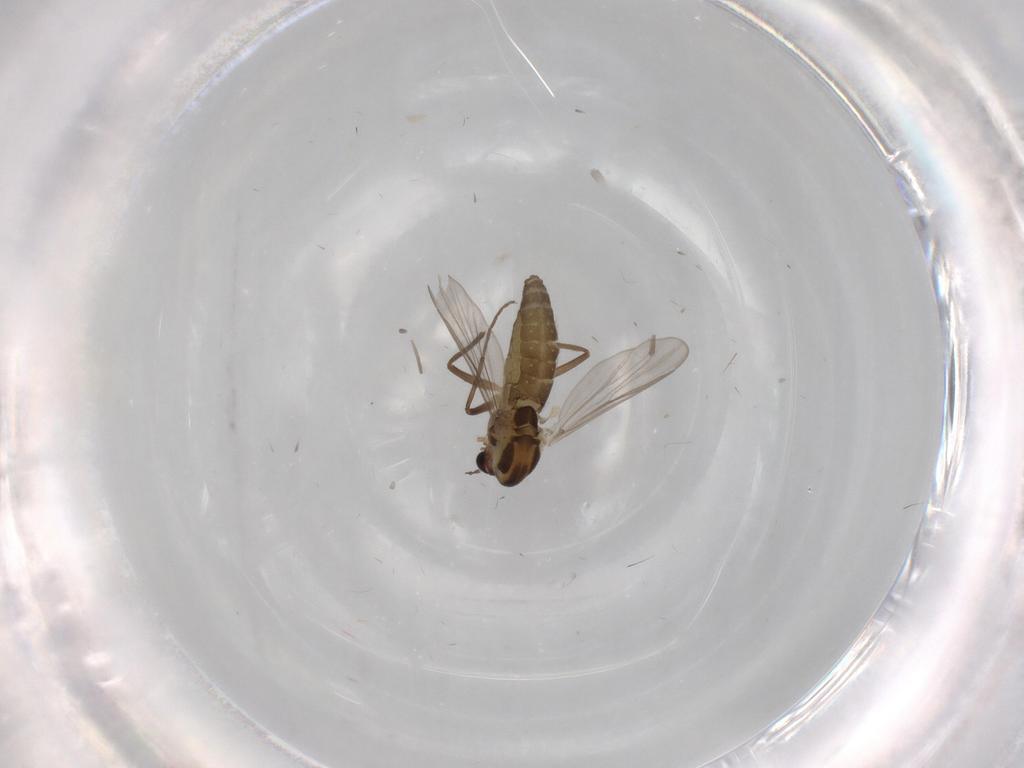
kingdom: Animalia
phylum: Arthropoda
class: Insecta
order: Diptera
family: Chironomidae
